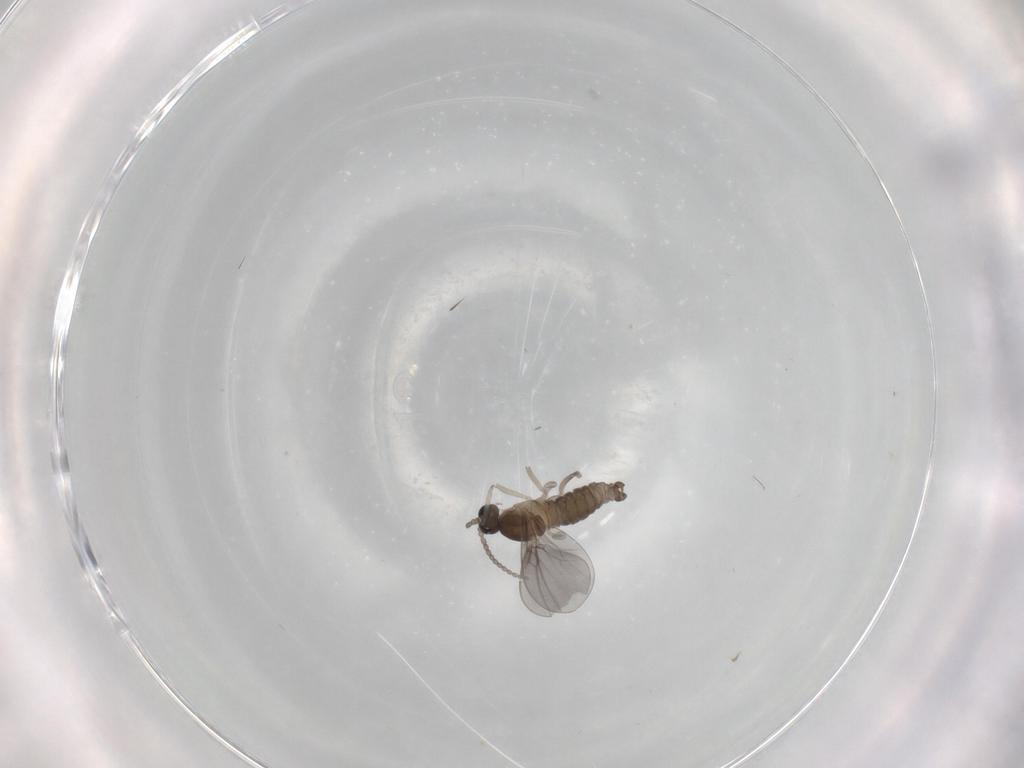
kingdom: Animalia
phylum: Arthropoda
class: Insecta
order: Diptera
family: Cecidomyiidae
